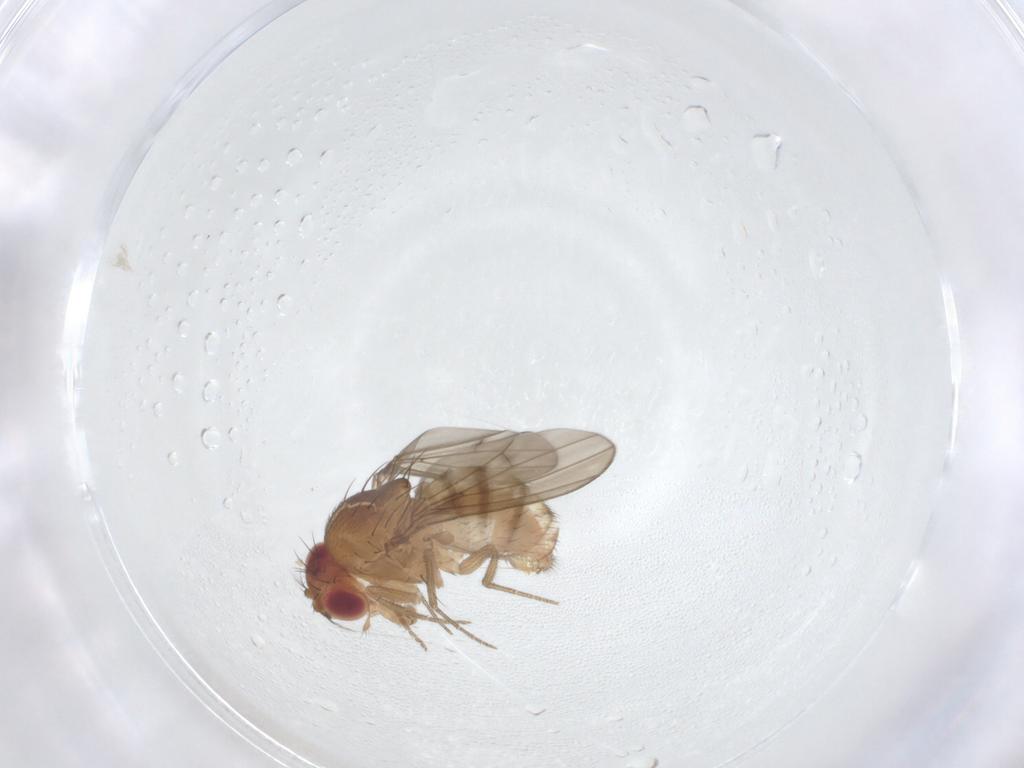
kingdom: Animalia
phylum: Arthropoda
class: Insecta
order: Diptera
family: Drosophilidae
